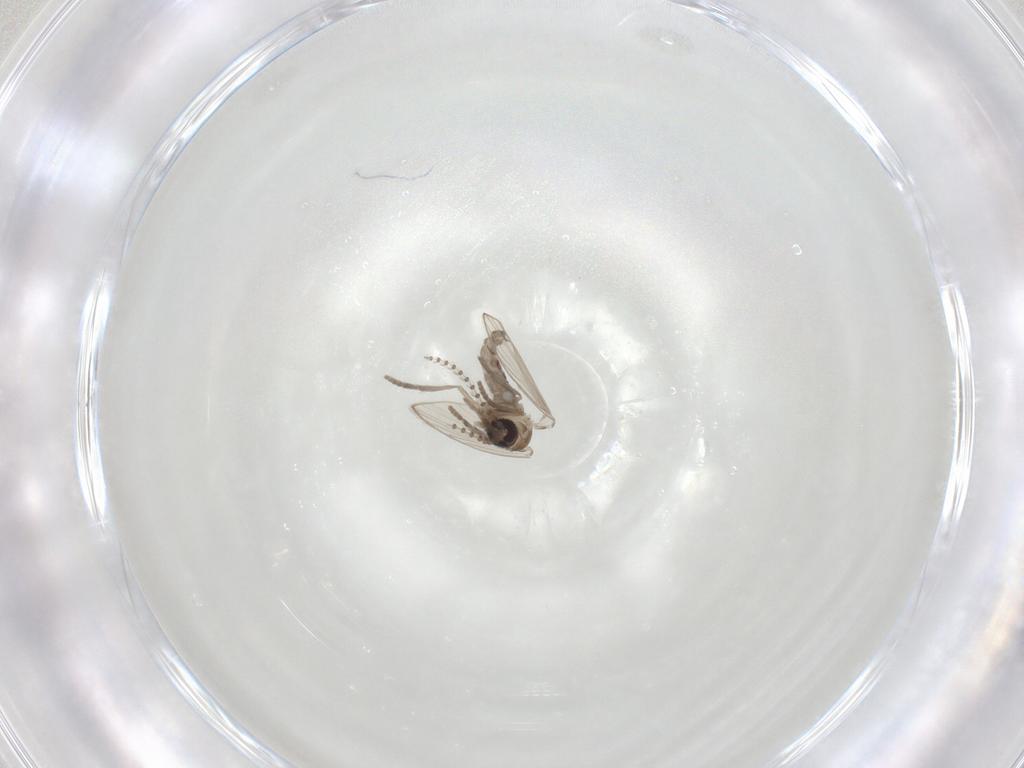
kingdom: Animalia
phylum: Arthropoda
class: Insecta
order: Diptera
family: Psychodidae
